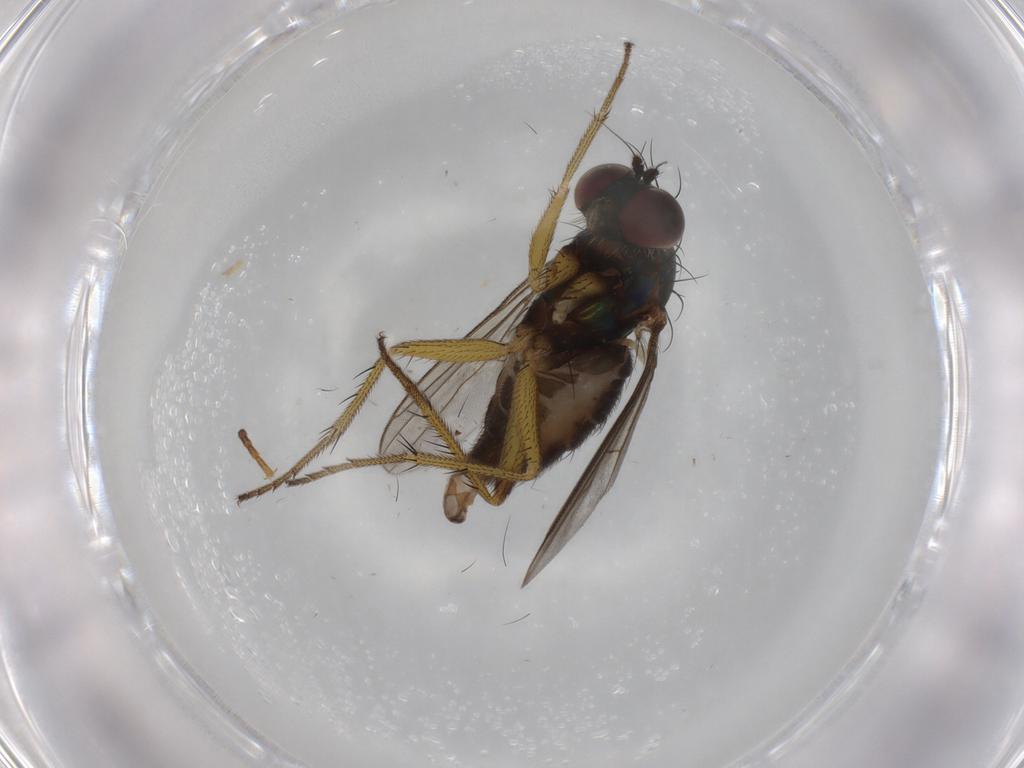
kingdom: Animalia
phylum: Arthropoda
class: Insecta
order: Diptera
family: Dolichopodidae
